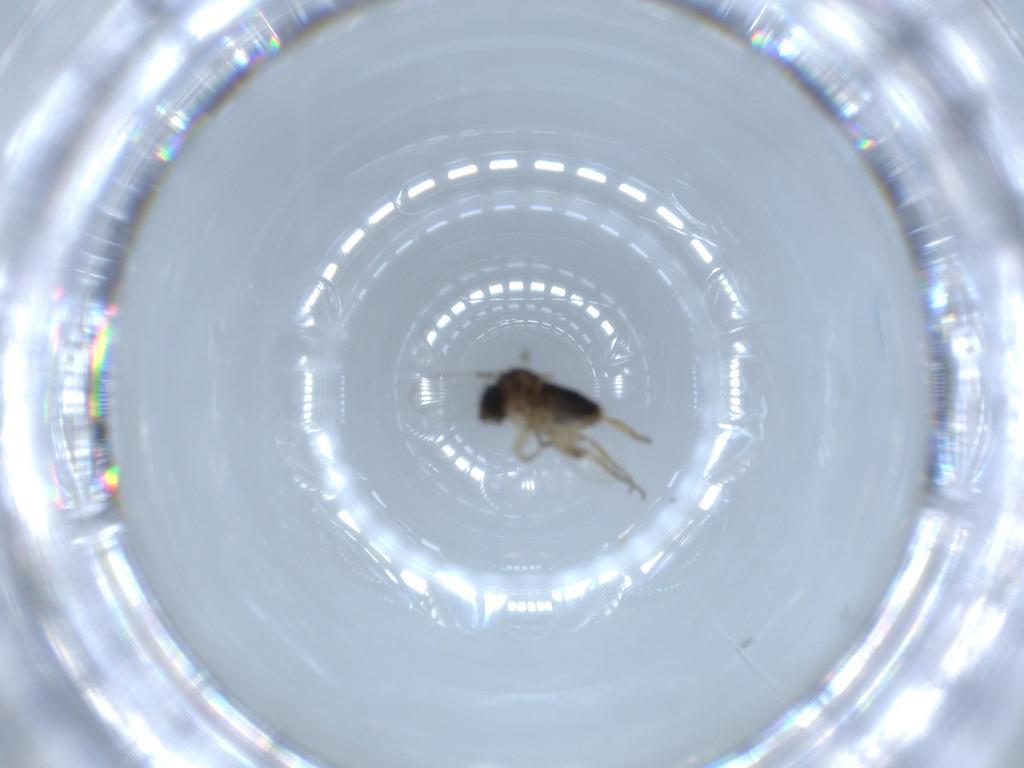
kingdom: Animalia
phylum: Arthropoda
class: Insecta
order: Diptera
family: Phoridae
